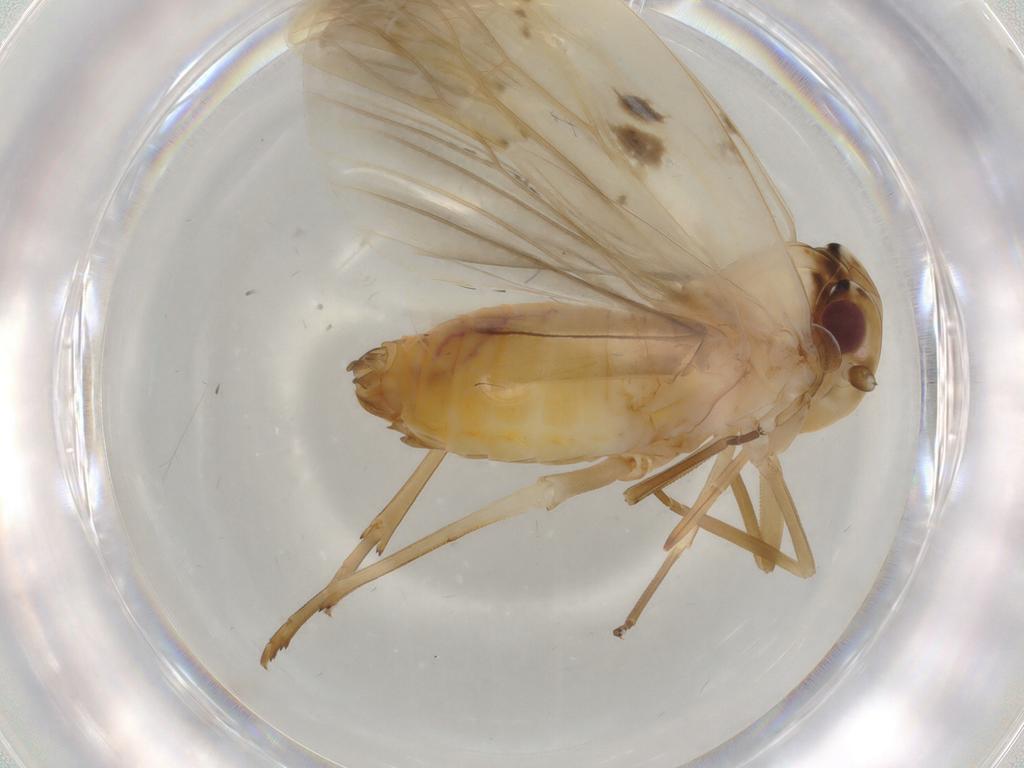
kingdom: Animalia
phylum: Arthropoda
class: Insecta
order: Hemiptera
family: Achilidae
